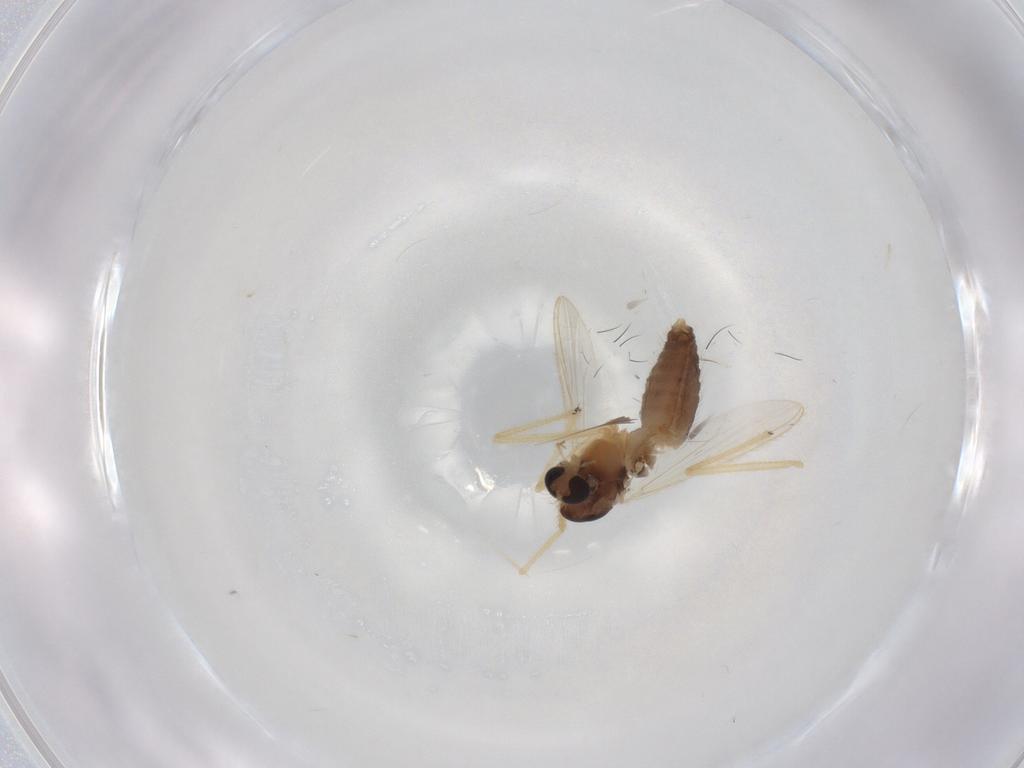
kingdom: Animalia
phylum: Arthropoda
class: Insecta
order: Diptera
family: Chironomidae
